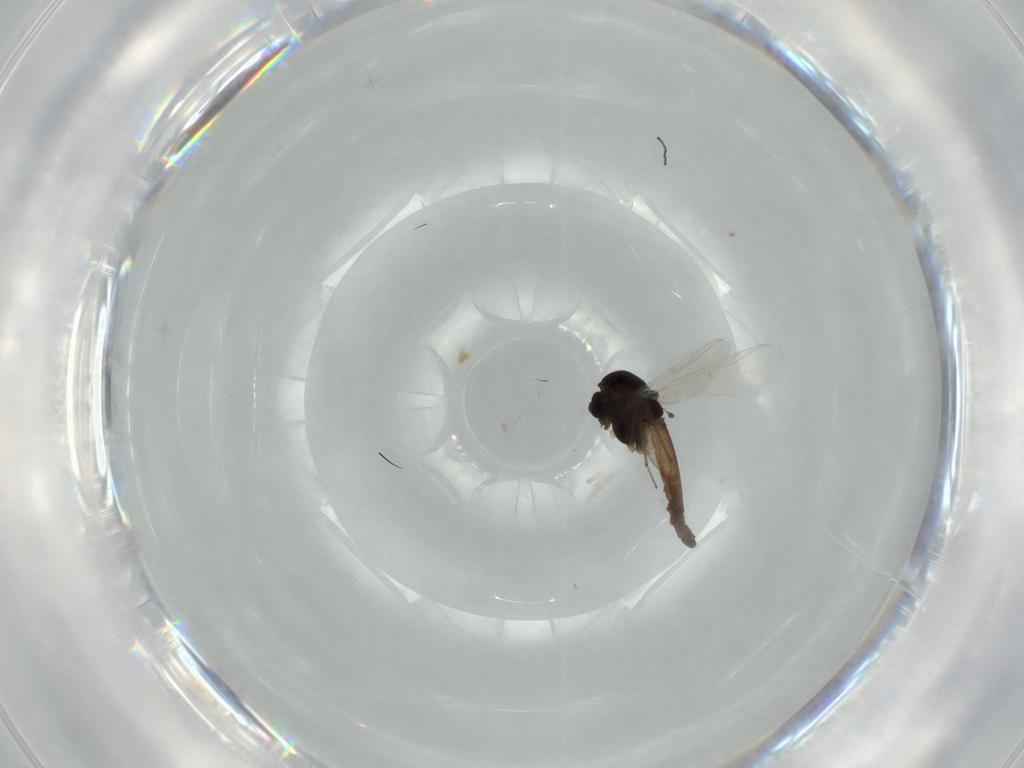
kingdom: Animalia
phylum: Arthropoda
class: Insecta
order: Diptera
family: Chironomidae
